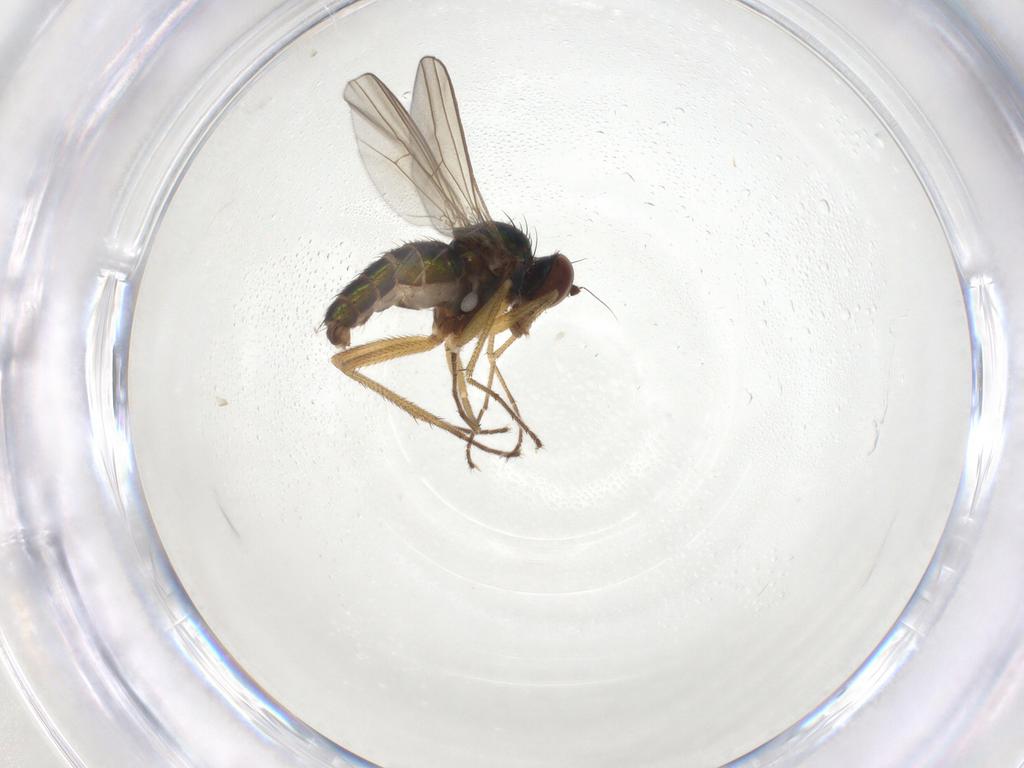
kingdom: Animalia
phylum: Arthropoda
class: Insecta
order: Diptera
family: Dolichopodidae
